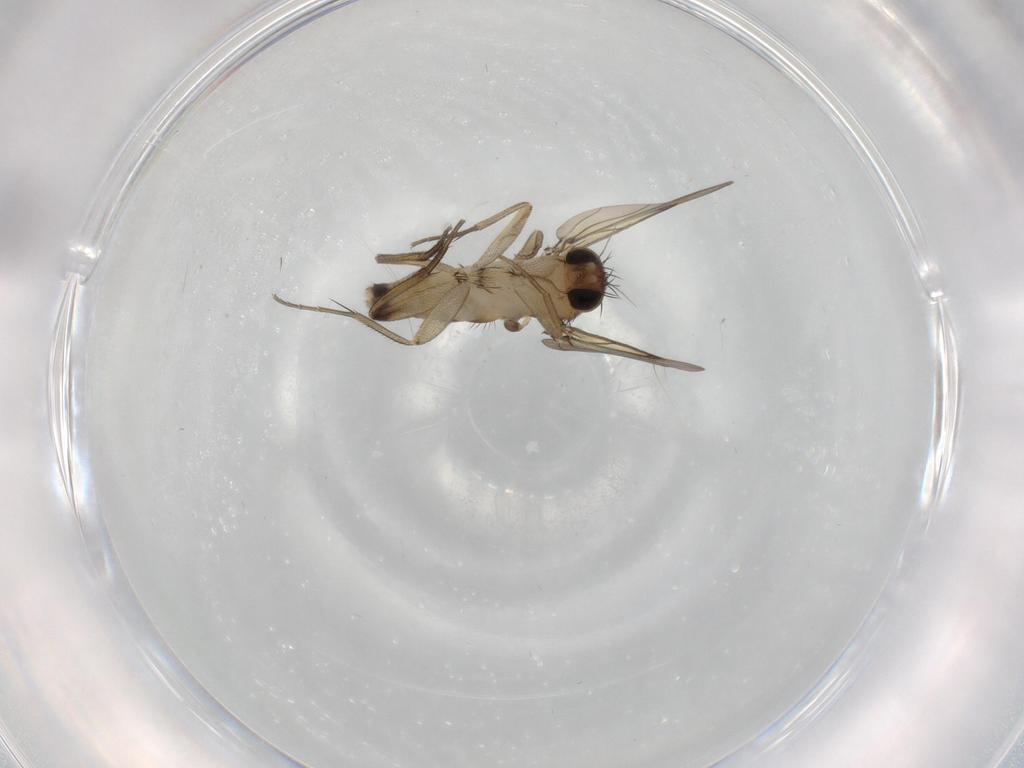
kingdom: Animalia
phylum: Arthropoda
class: Insecta
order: Diptera
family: Phoridae
